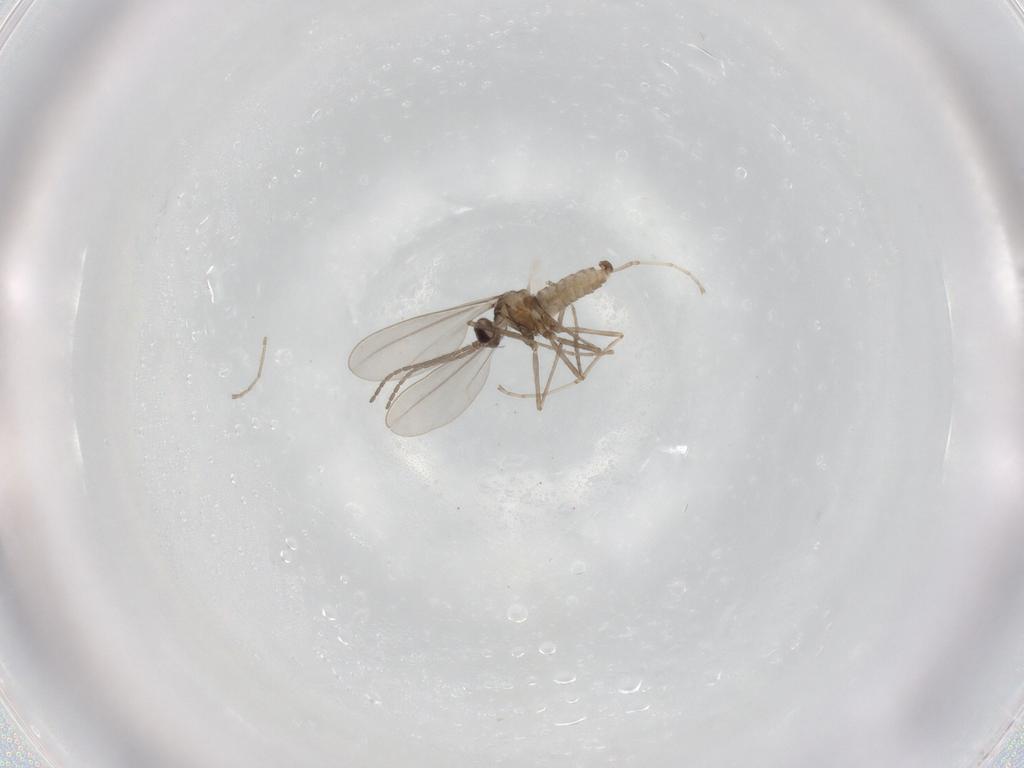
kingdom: Animalia
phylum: Arthropoda
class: Insecta
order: Diptera
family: Cecidomyiidae
